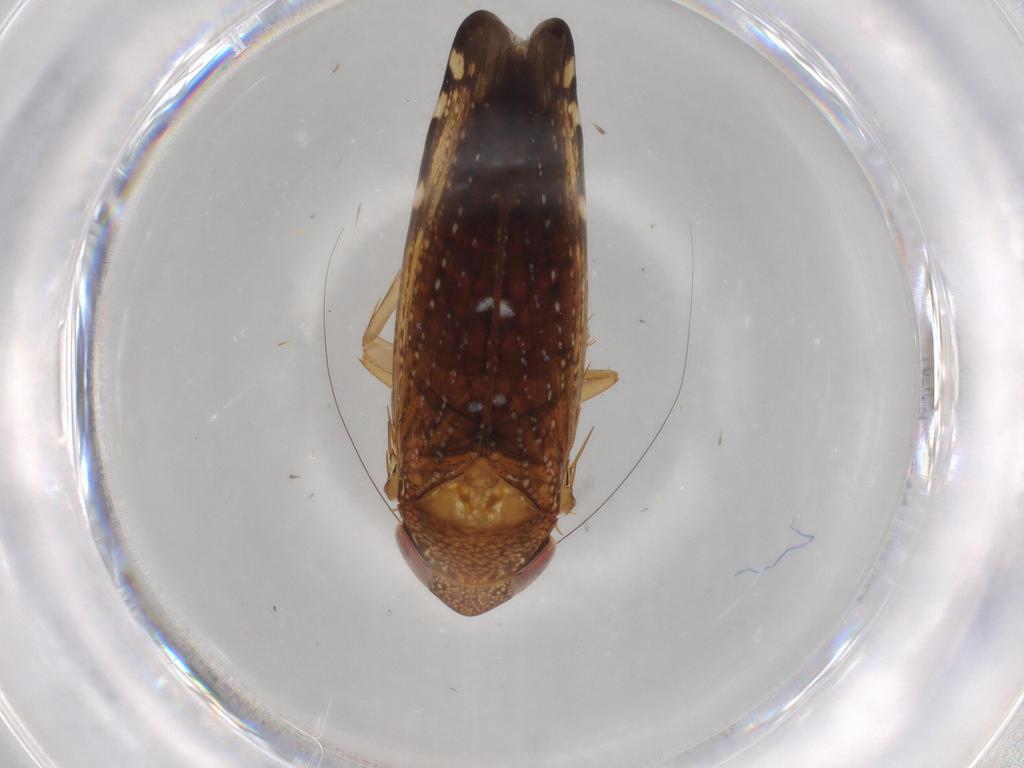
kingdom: Animalia
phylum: Arthropoda
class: Insecta
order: Hemiptera
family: Cicadellidae
